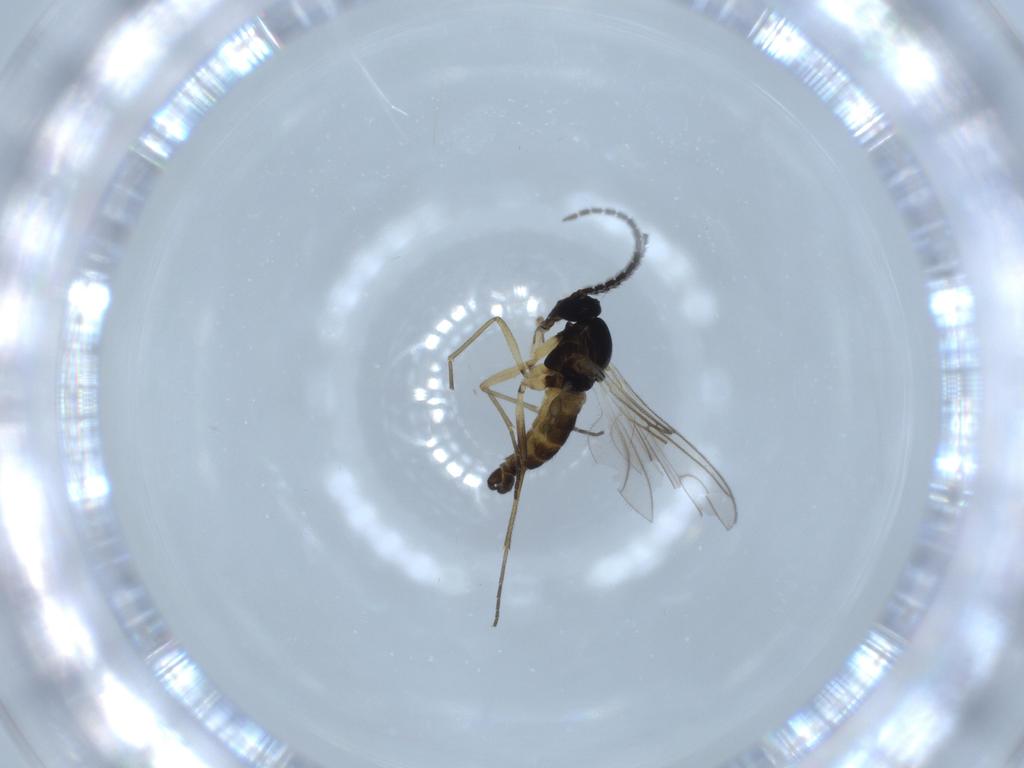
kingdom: Animalia
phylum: Arthropoda
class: Insecta
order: Diptera
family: Sciaridae
